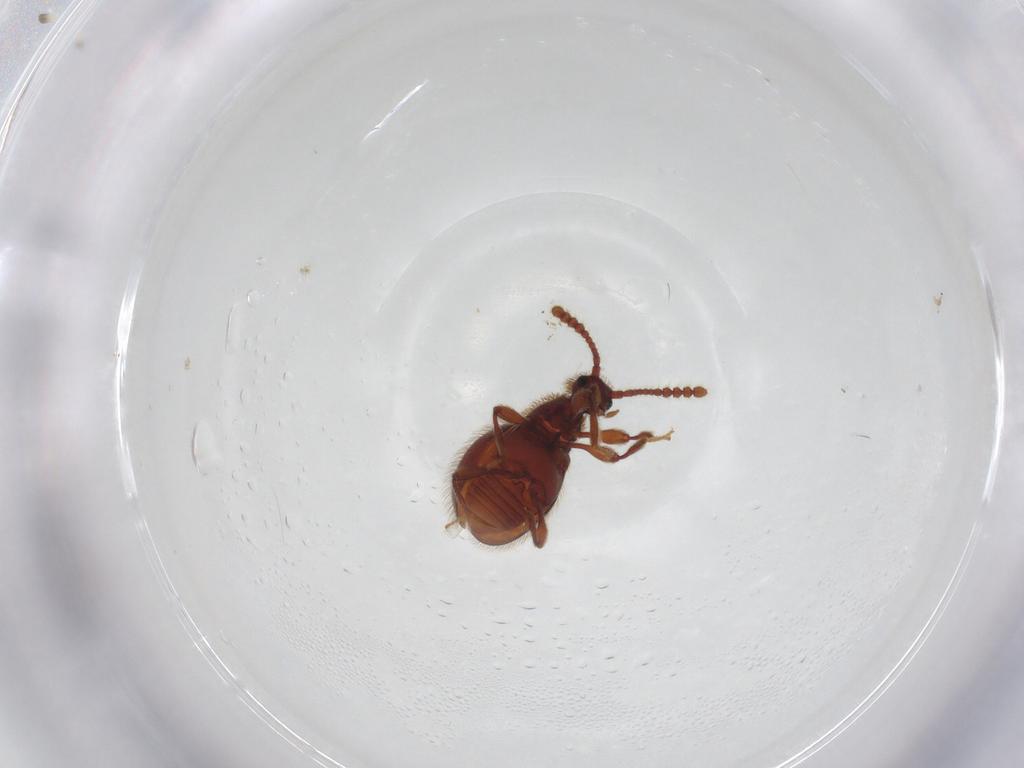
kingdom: Animalia
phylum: Arthropoda
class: Insecta
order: Coleoptera
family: Staphylinidae
